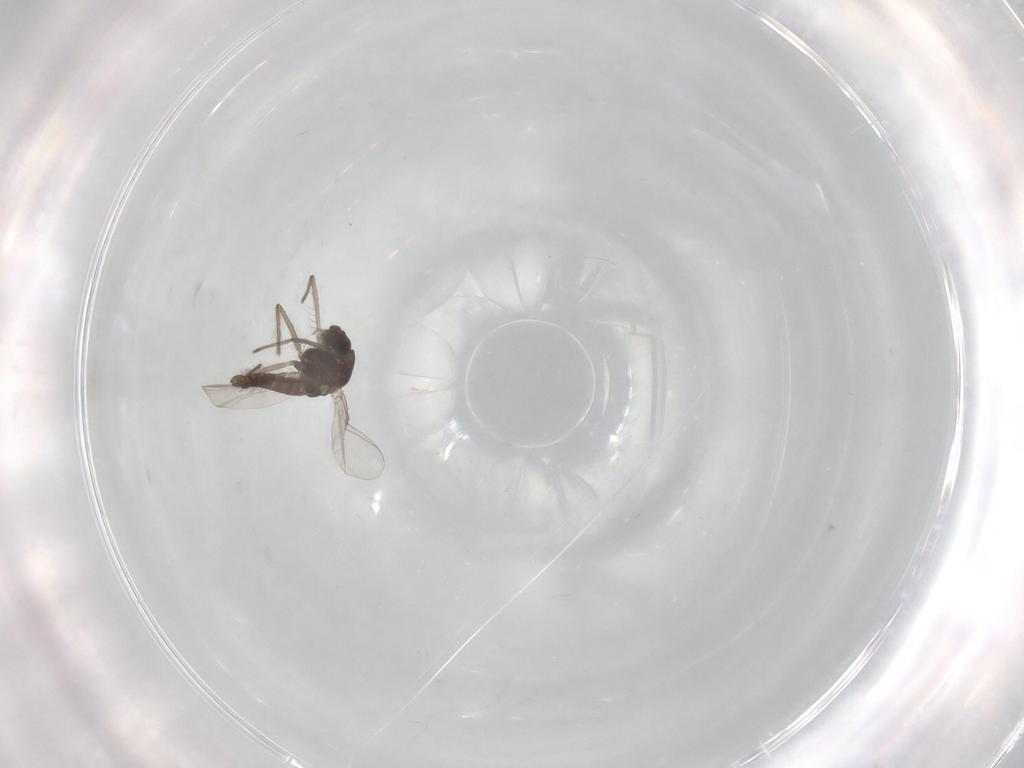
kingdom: Animalia
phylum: Arthropoda
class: Insecta
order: Diptera
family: Chironomidae
